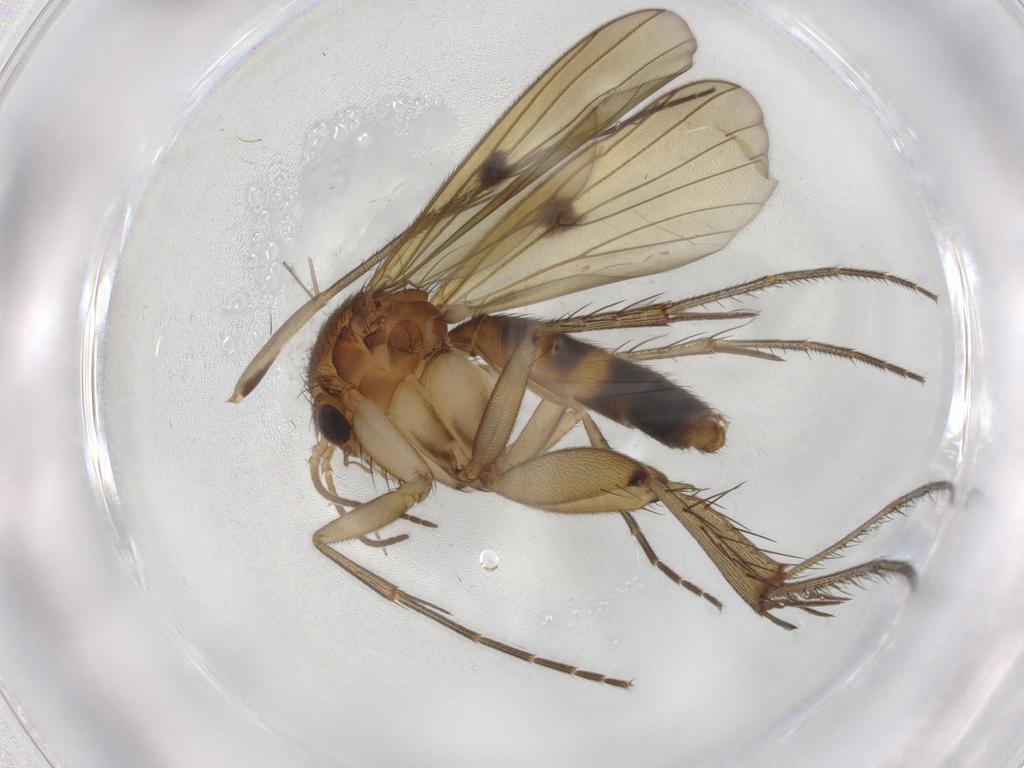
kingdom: Animalia
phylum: Arthropoda
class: Insecta
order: Diptera
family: Mycetophilidae
